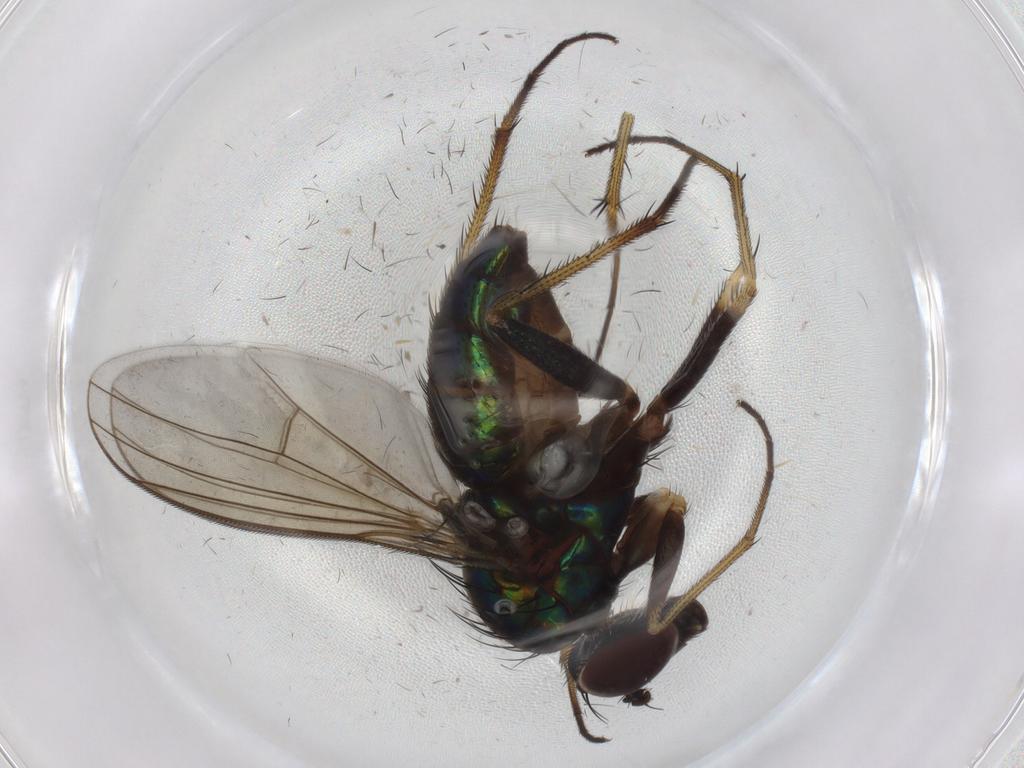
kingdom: Animalia
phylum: Arthropoda
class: Insecta
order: Diptera
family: Dolichopodidae
